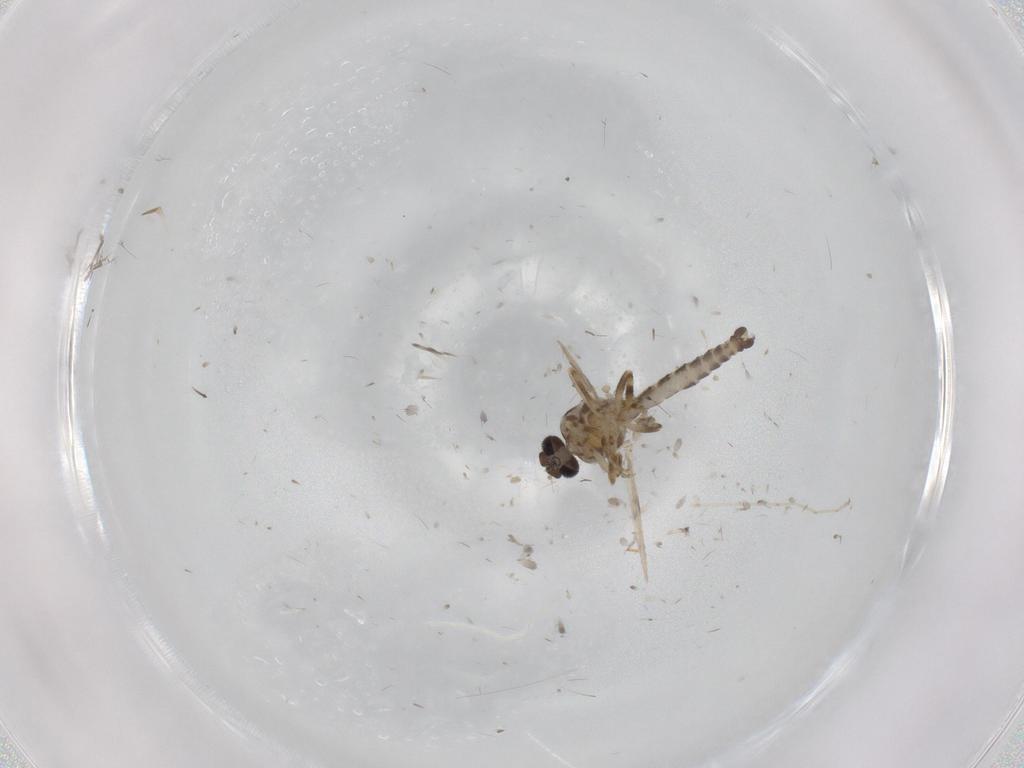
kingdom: Animalia
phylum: Arthropoda
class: Insecta
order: Diptera
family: Ceratopogonidae
